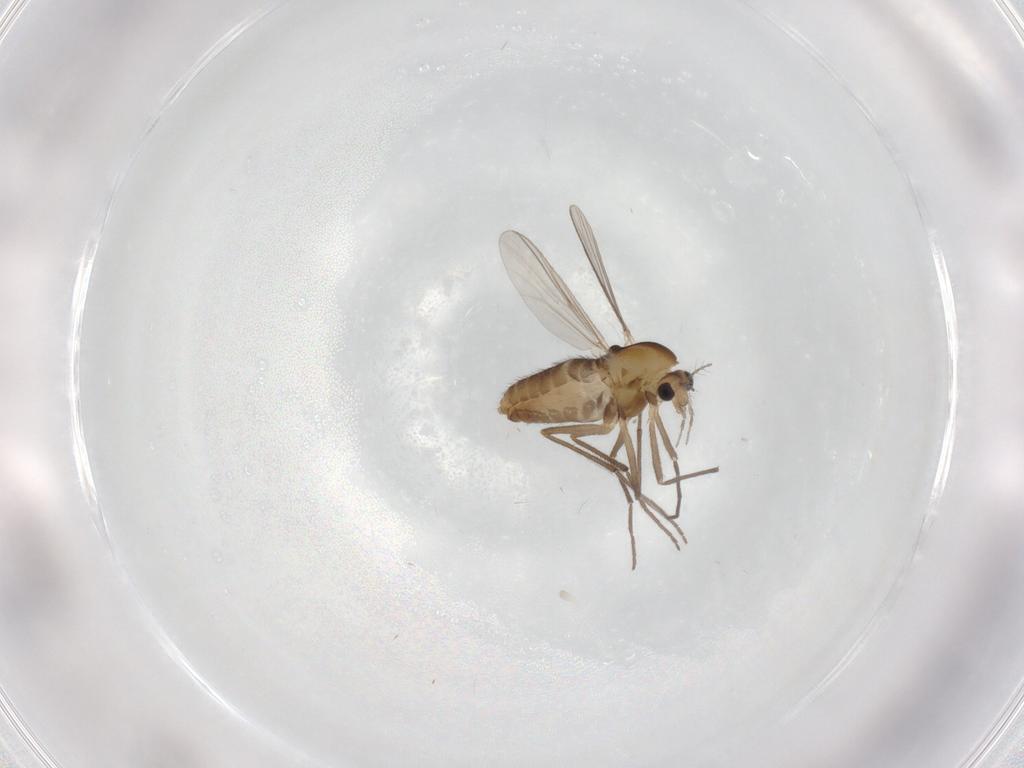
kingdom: Animalia
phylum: Arthropoda
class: Insecta
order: Diptera
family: Chironomidae
